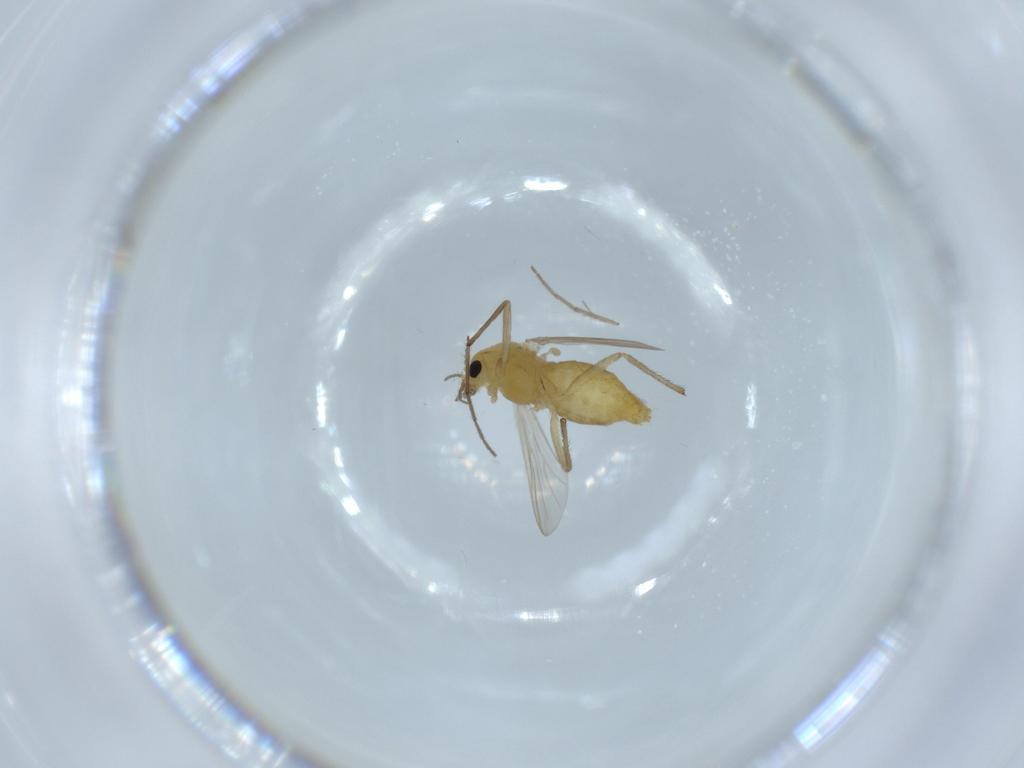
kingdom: Animalia
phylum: Arthropoda
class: Insecta
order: Diptera
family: Chironomidae
